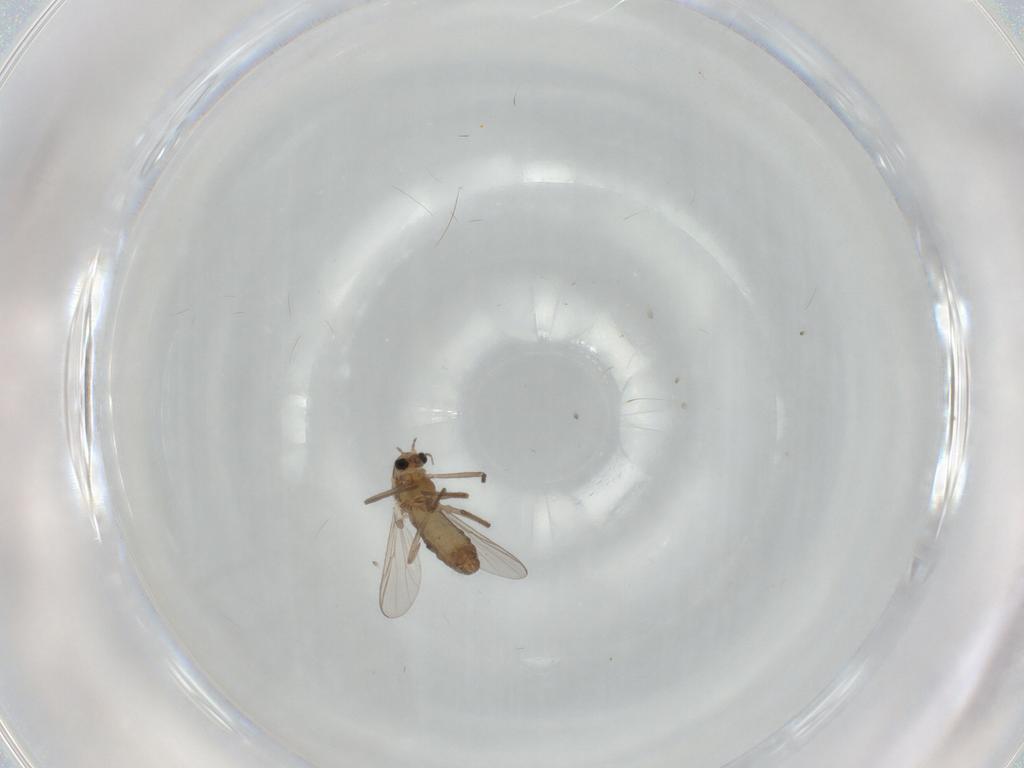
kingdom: Animalia
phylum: Arthropoda
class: Insecta
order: Diptera
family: Chironomidae
